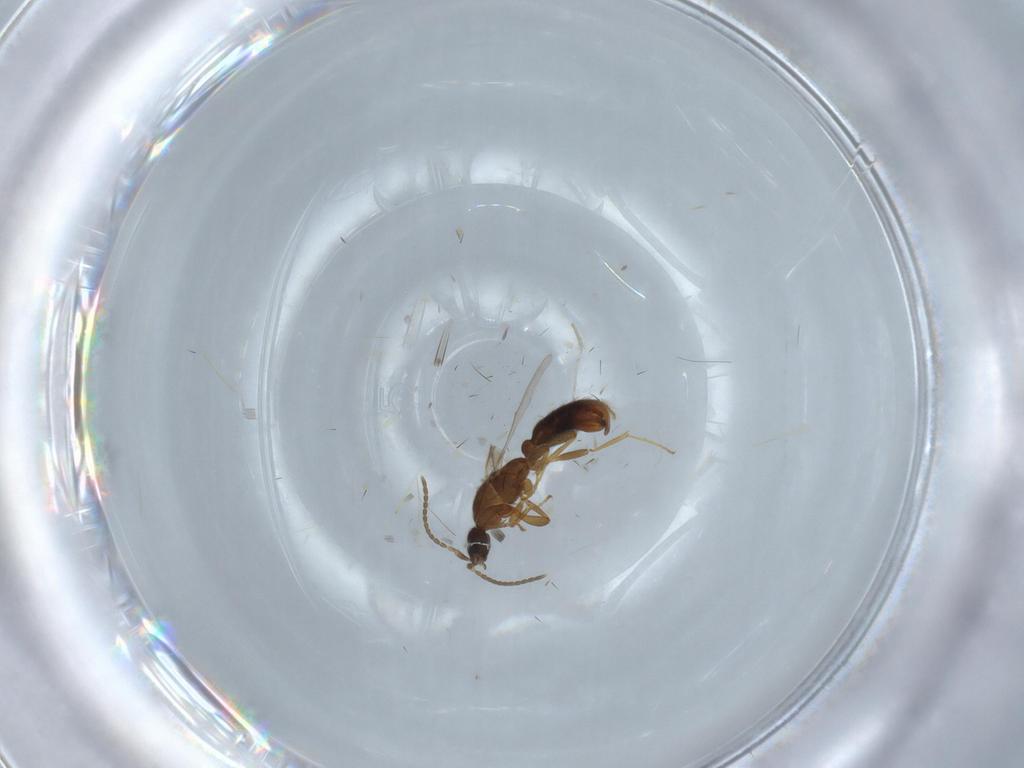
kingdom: Animalia
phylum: Arthropoda
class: Insecta
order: Hymenoptera
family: Formicidae
